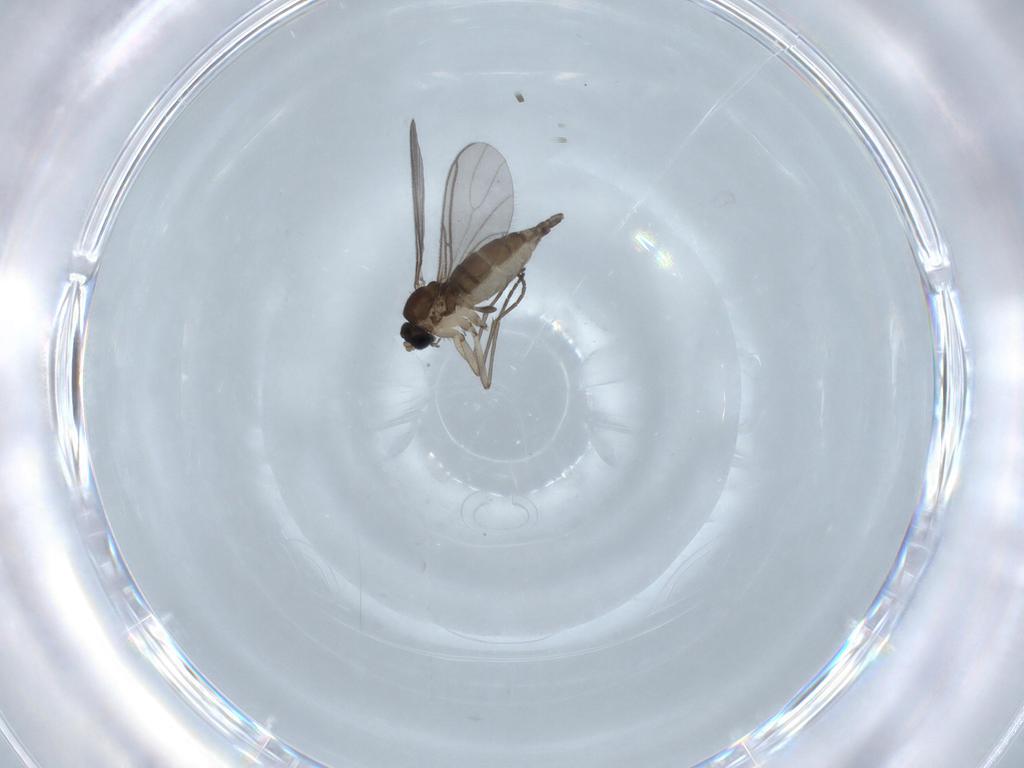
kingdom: Animalia
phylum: Arthropoda
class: Insecta
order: Diptera
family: Sciaridae
